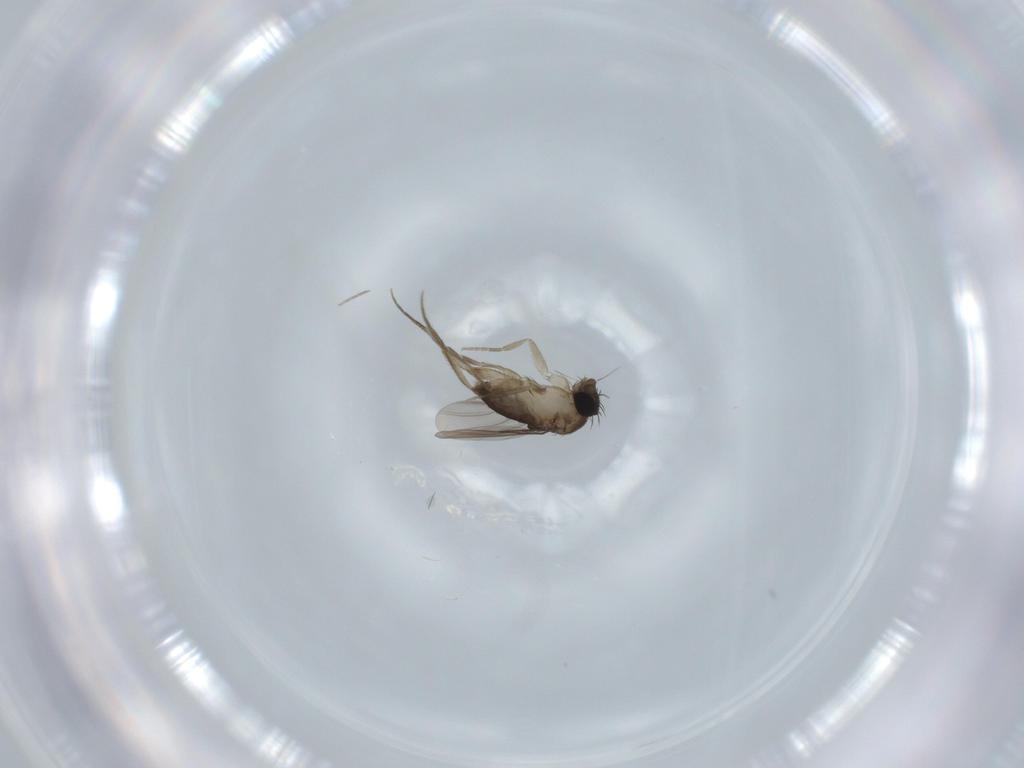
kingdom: Animalia
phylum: Arthropoda
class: Insecta
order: Diptera
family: Phoridae
